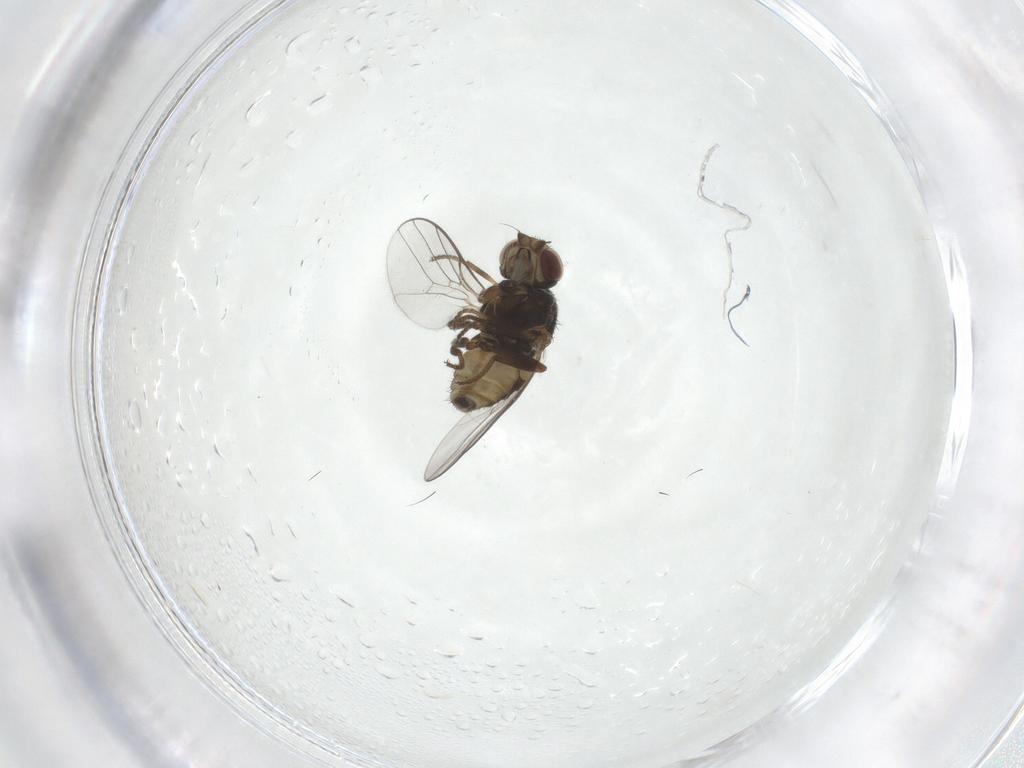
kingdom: Animalia
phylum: Arthropoda
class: Insecta
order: Diptera
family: Chloropidae
